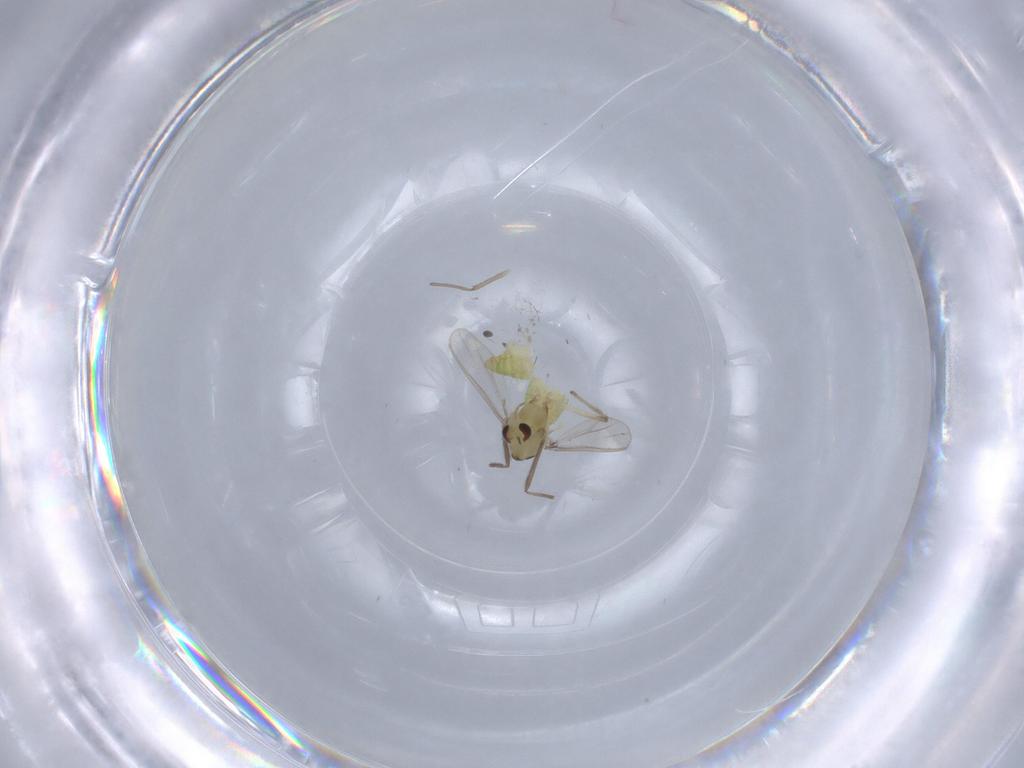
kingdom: Animalia
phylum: Arthropoda
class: Insecta
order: Diptera
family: Chironomidae
